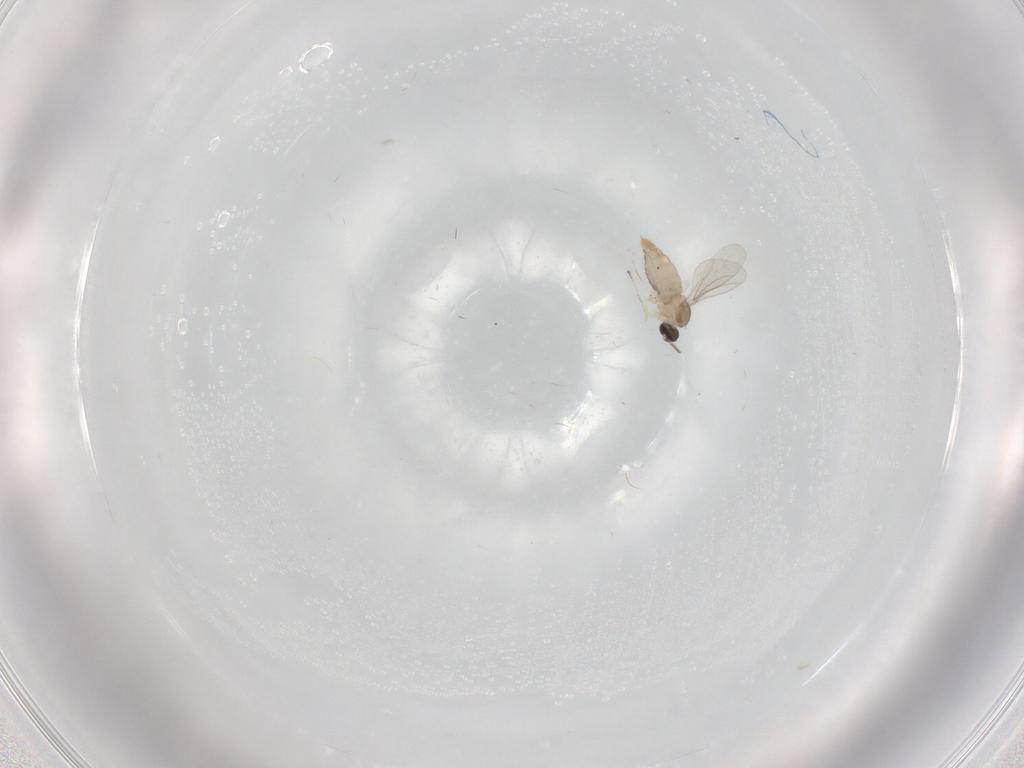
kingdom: Animalia
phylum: Arthropoda
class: Insecta
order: Diptera
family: Cecidomyiidae
